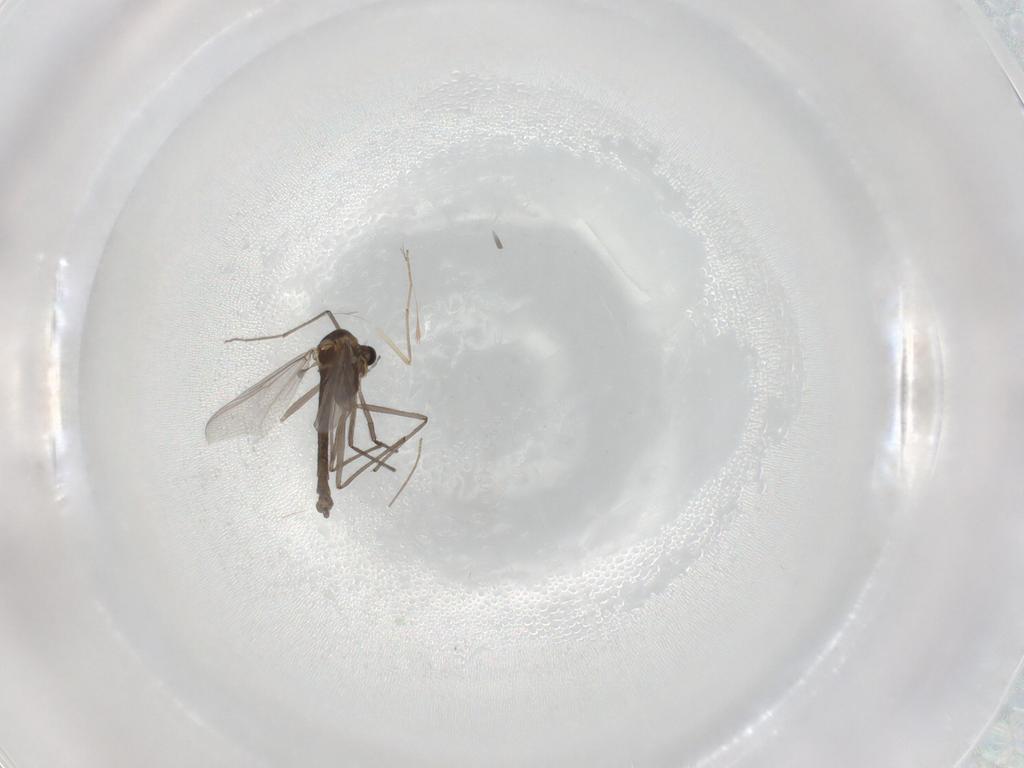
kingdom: Animalia
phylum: Arthropoda
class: Insecta
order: Diptera
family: Chironomidae
